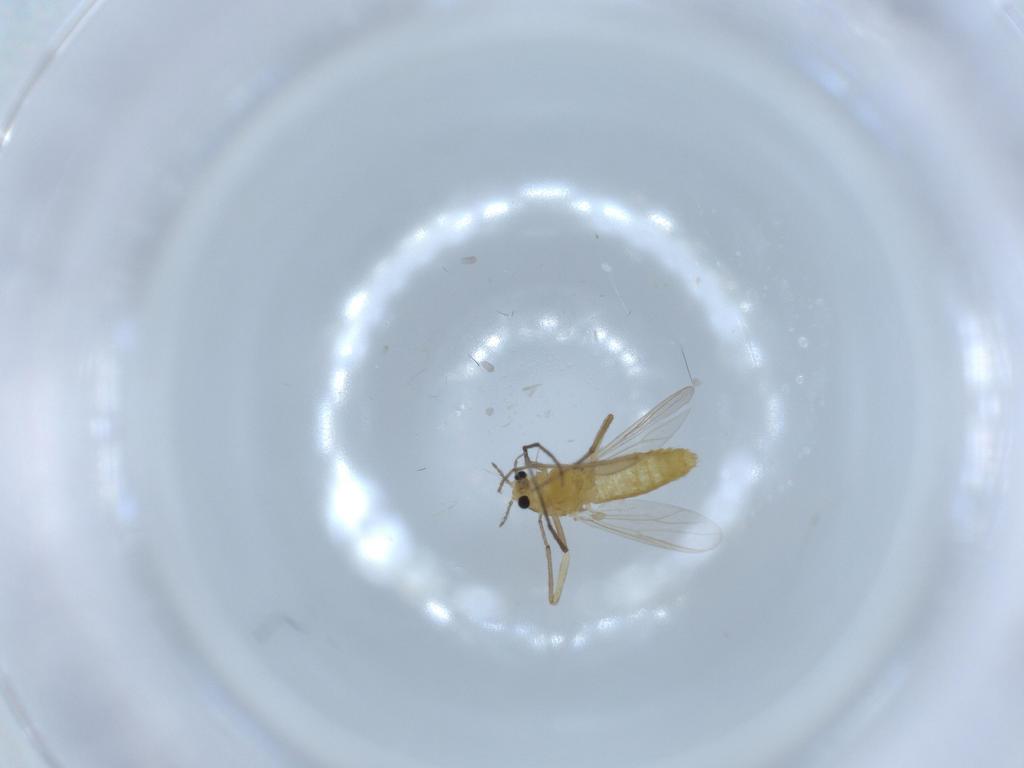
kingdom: Animalia
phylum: Arthropoda
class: Insecta
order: Diptera
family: Chironomidae
